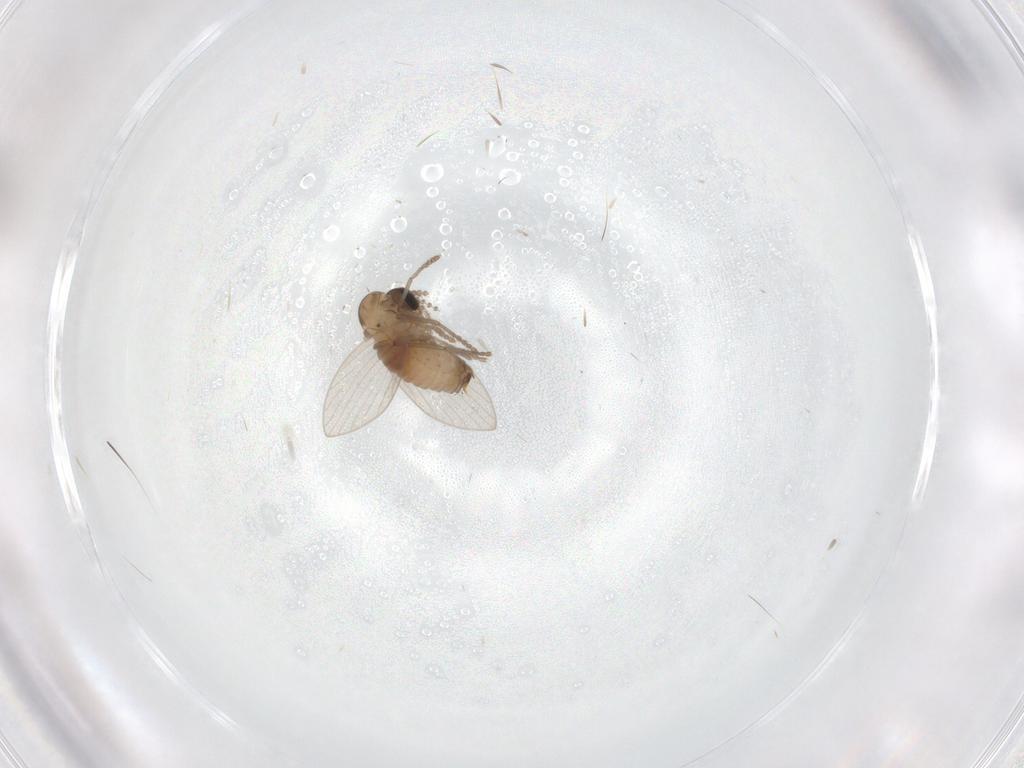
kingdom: Animalia
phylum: Arthropoda
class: Insecta
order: Diptera
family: Psychodidae
